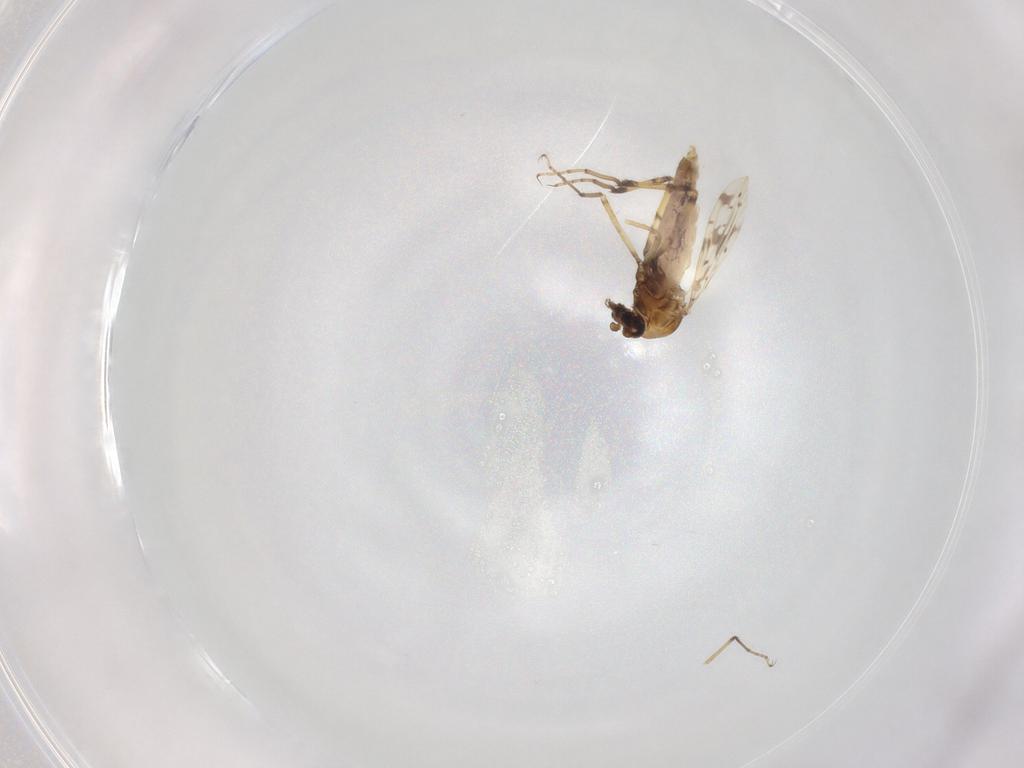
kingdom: Animalia
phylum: Arthropoda
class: Insecta
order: Diptera
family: Ceratopogonidae
